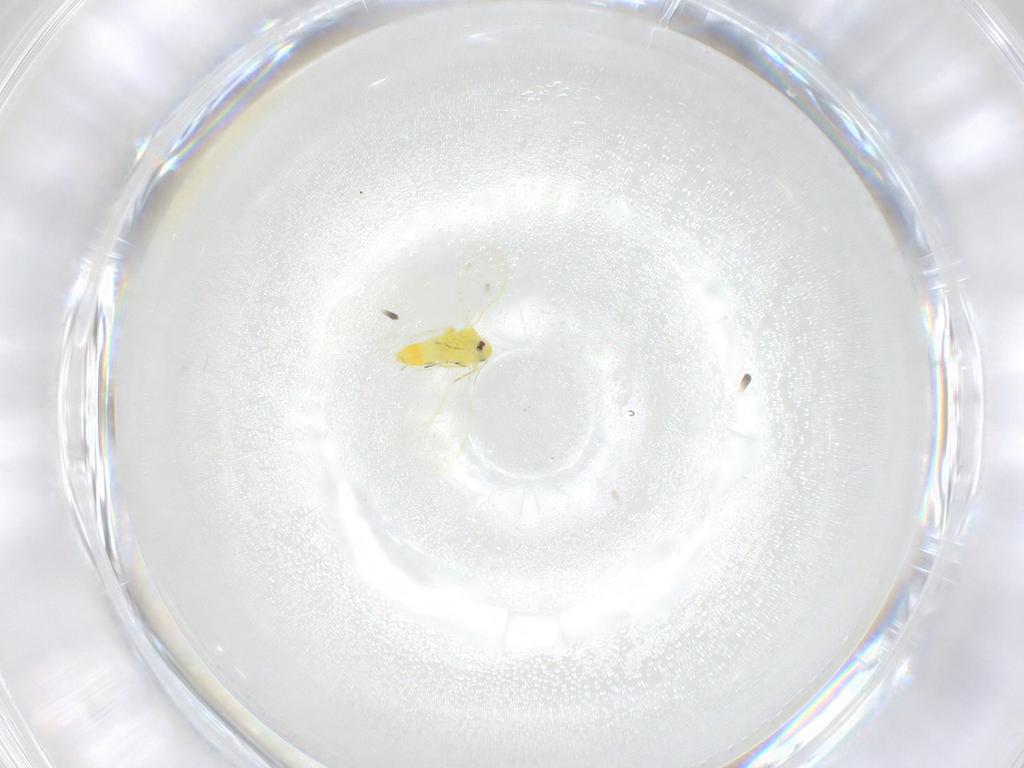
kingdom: Animalia
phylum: Arthropoda
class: Insecta
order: Hemiptera
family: Aleyrodidae
